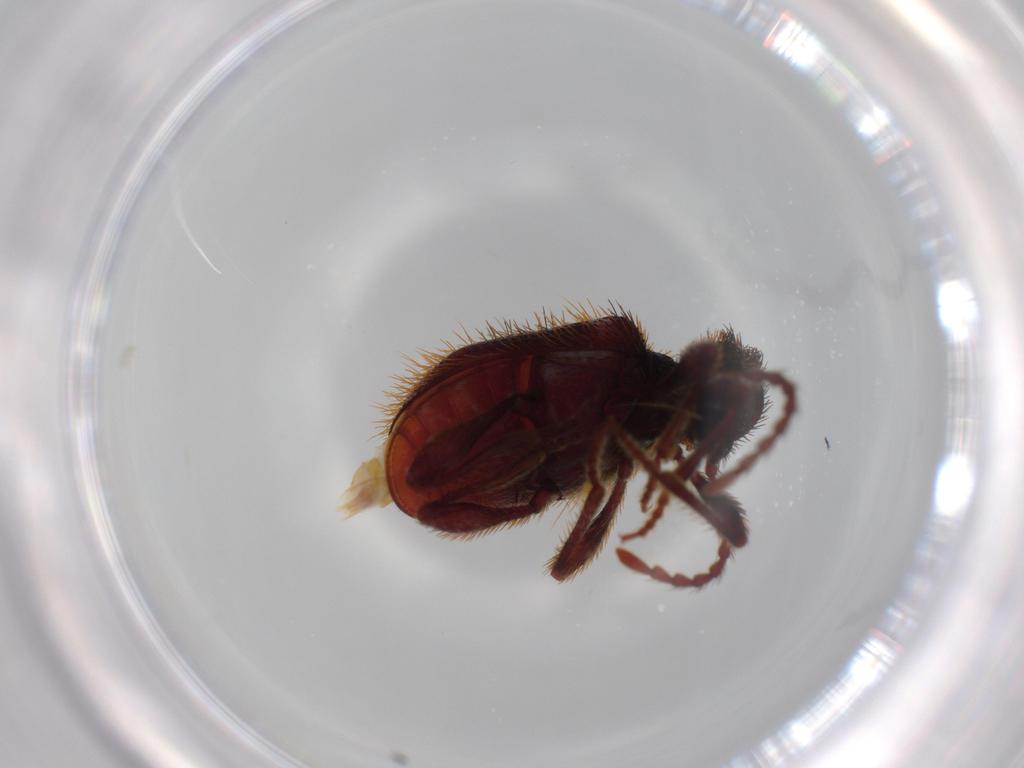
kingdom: Animalia
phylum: Arthropoda
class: Insecta
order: Coleoptera
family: Ptinidae
